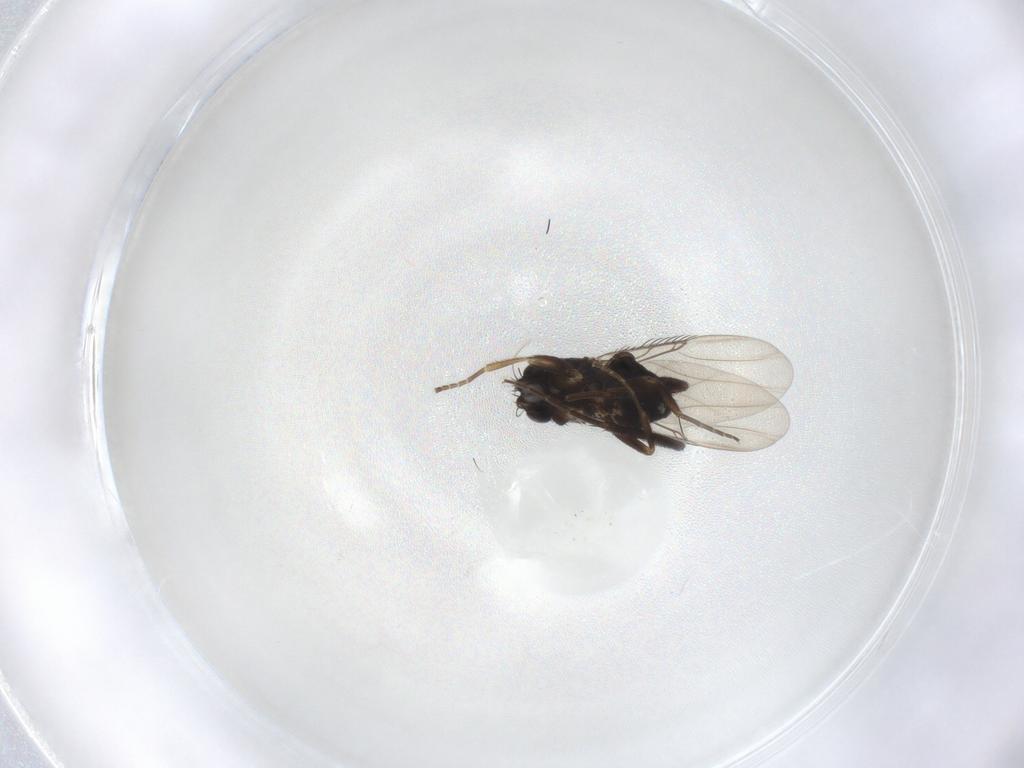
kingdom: Animalia
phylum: Arthropoda
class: Insecta
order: Diptera
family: Phoridae
